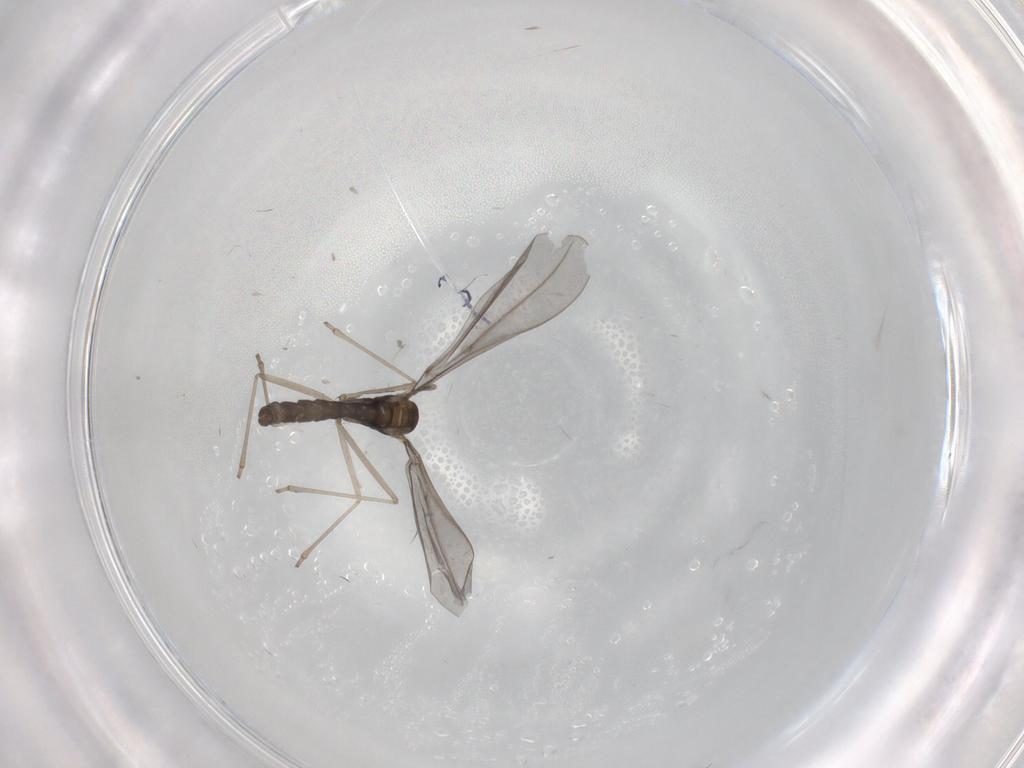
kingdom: Animalia
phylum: Arthropoda
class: Insecta
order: Diptera
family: Cecidomyiidae
